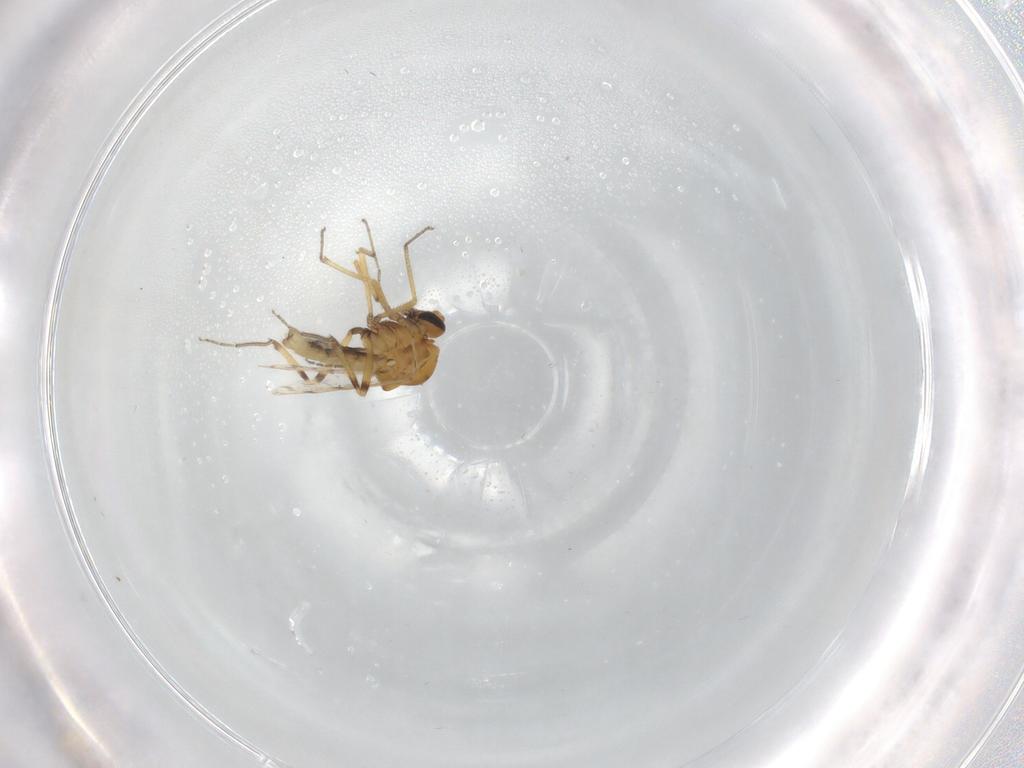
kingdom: Animalia
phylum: Arthropoda
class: Insecta
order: Diptera
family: Ceratopogonidae
